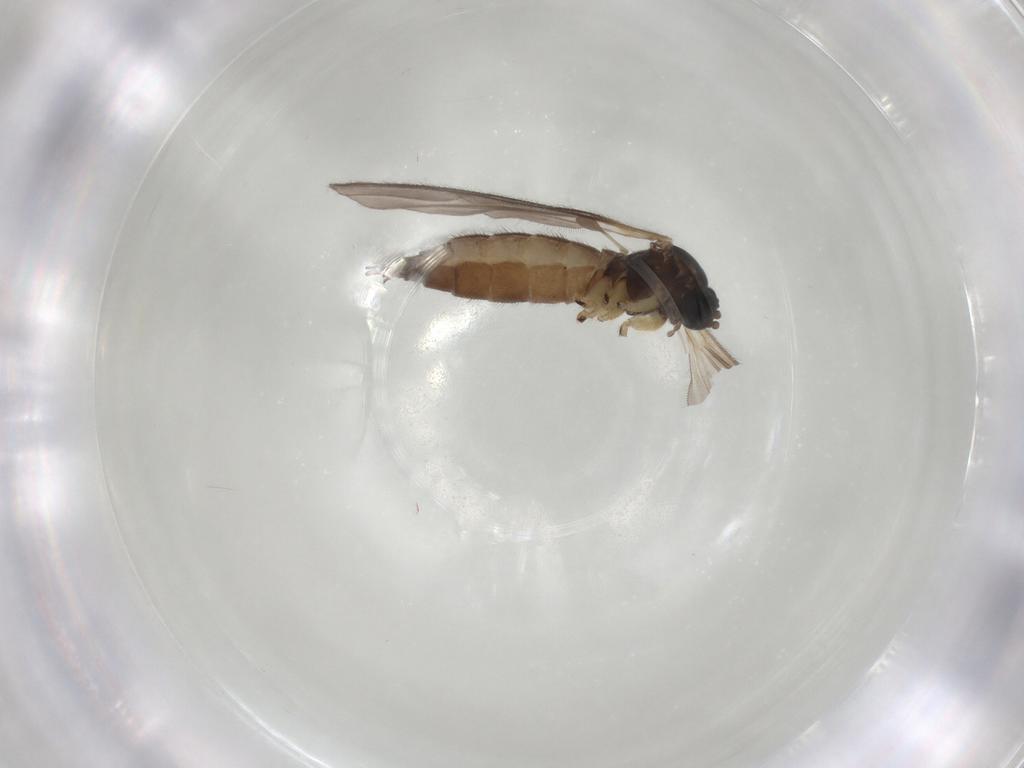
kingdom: Animalia
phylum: Arthropoda
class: Insecta
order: Diptera
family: Sciaridae
